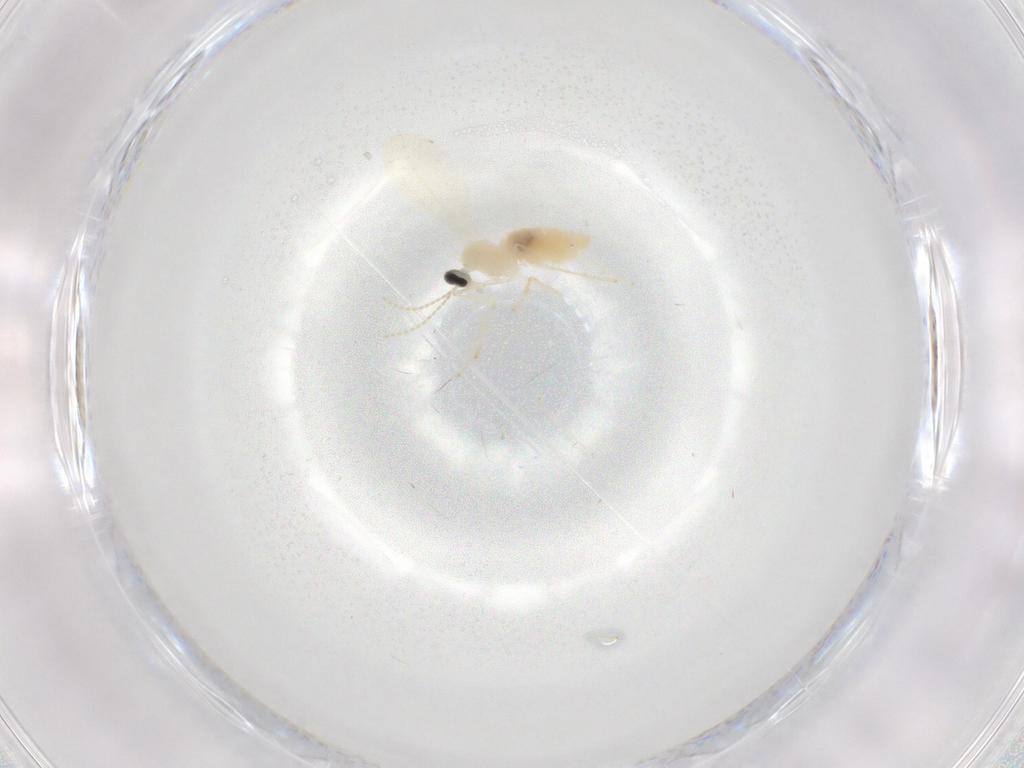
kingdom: Animalia
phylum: Arthropoda
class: Insecta
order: Diptera
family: Cecidomyiidae
